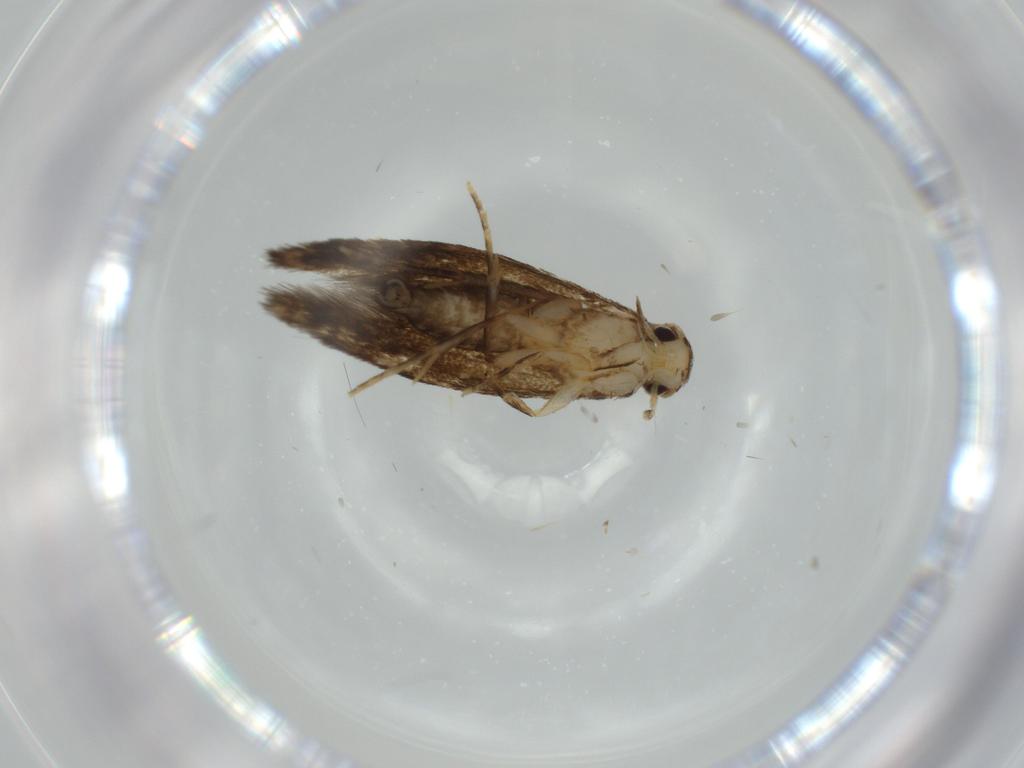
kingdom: Animalia
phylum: Arthropoda
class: Insecta
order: Lepidoptera
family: Tineidae
